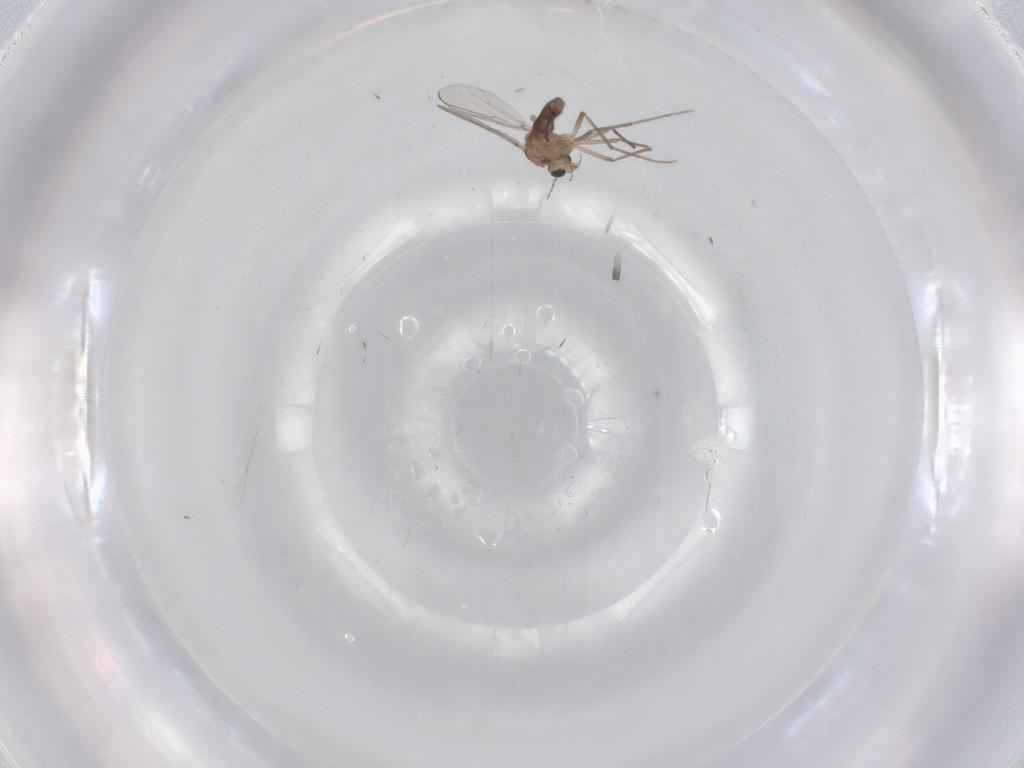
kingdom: Animalia
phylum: Arthropoda
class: Insecta
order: Diptera
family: Chironomidae
